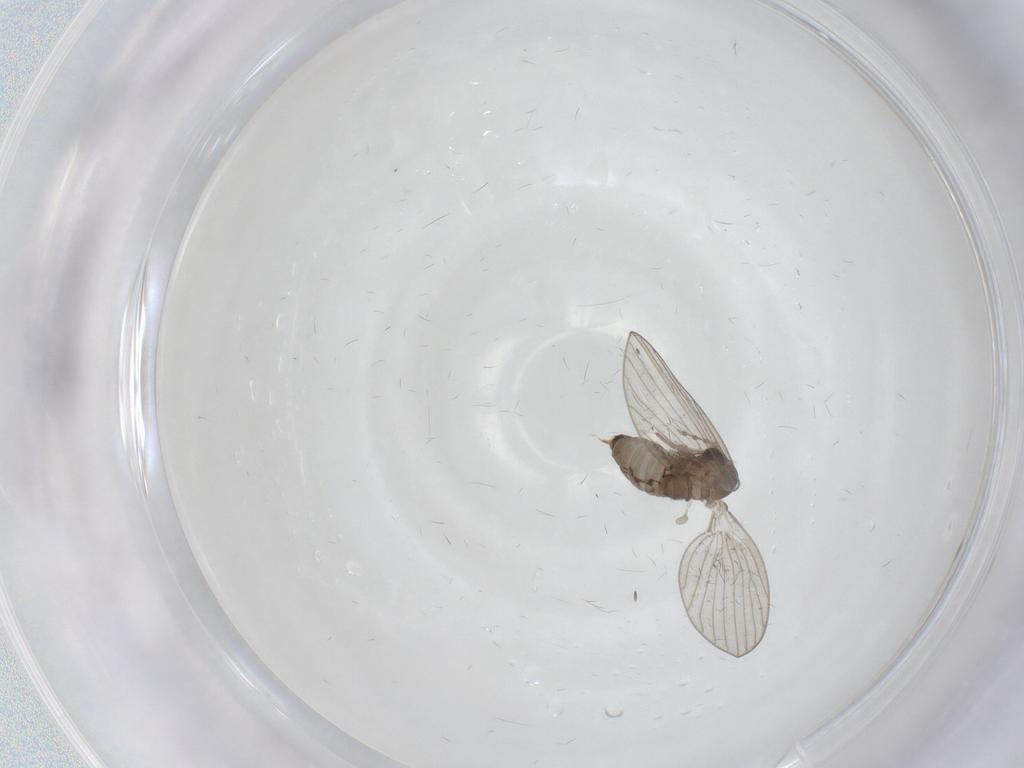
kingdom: Animalia
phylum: Arthropoda
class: Insecta
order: Diptera
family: Psychodidae
